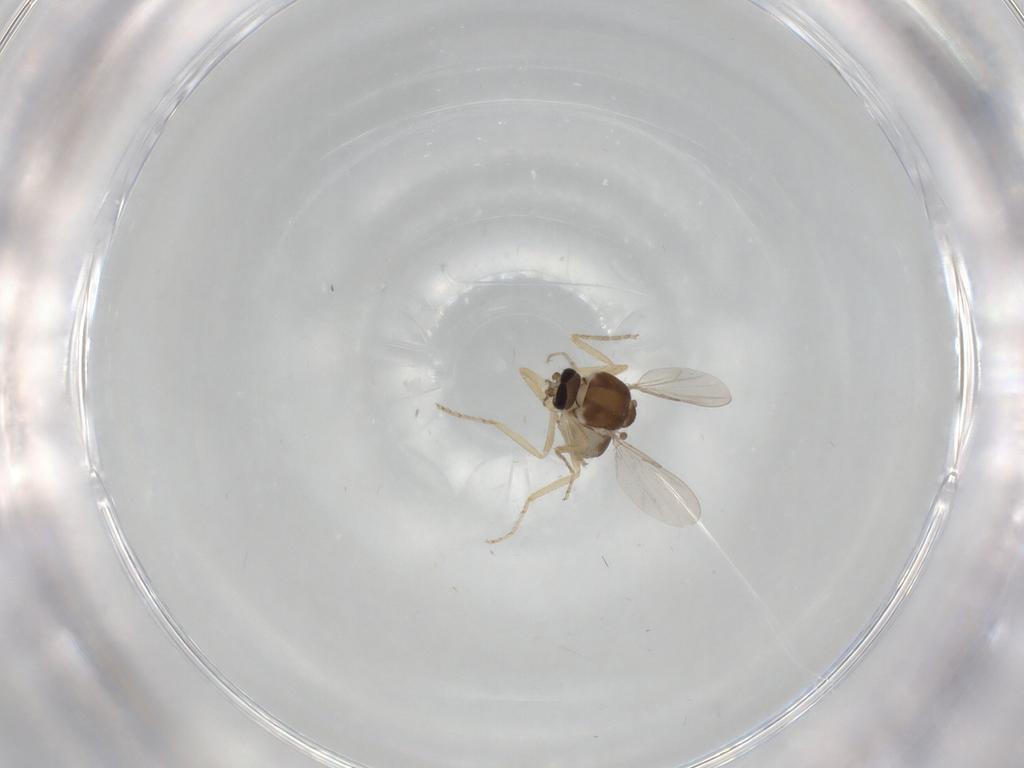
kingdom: Animalia
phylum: Arthropoda
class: Insecta
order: Diptera
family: Ceratopogonidae
